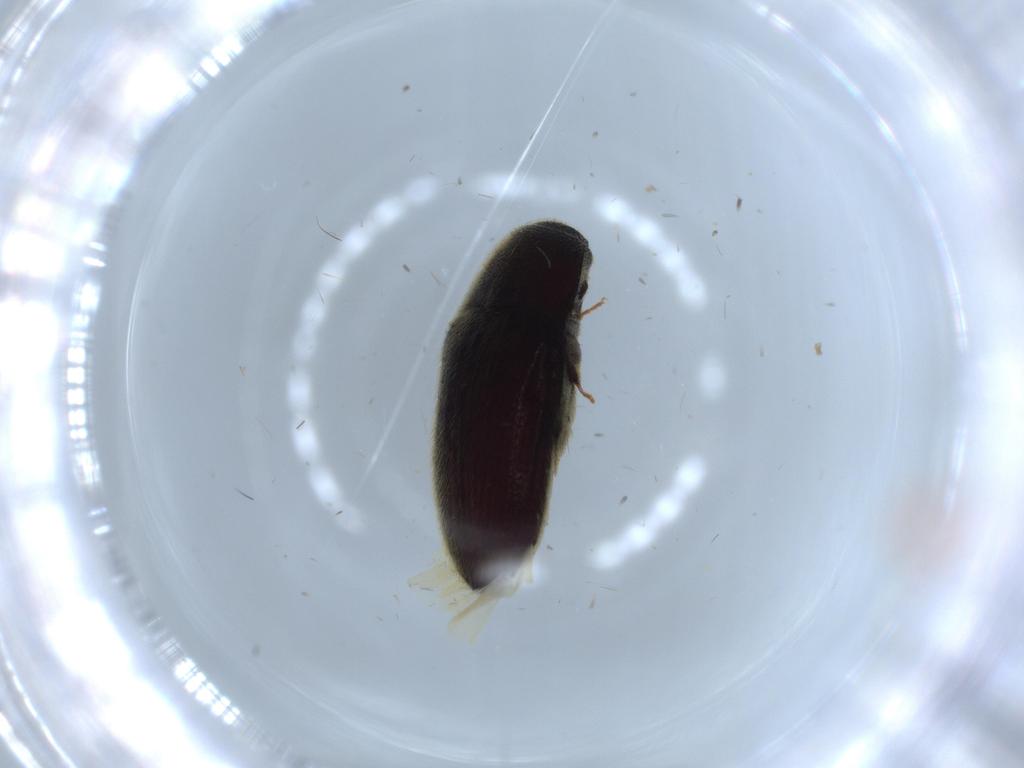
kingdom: Animalia
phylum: Arthropoda
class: Insecta
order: Coleoptera
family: Throscidae
